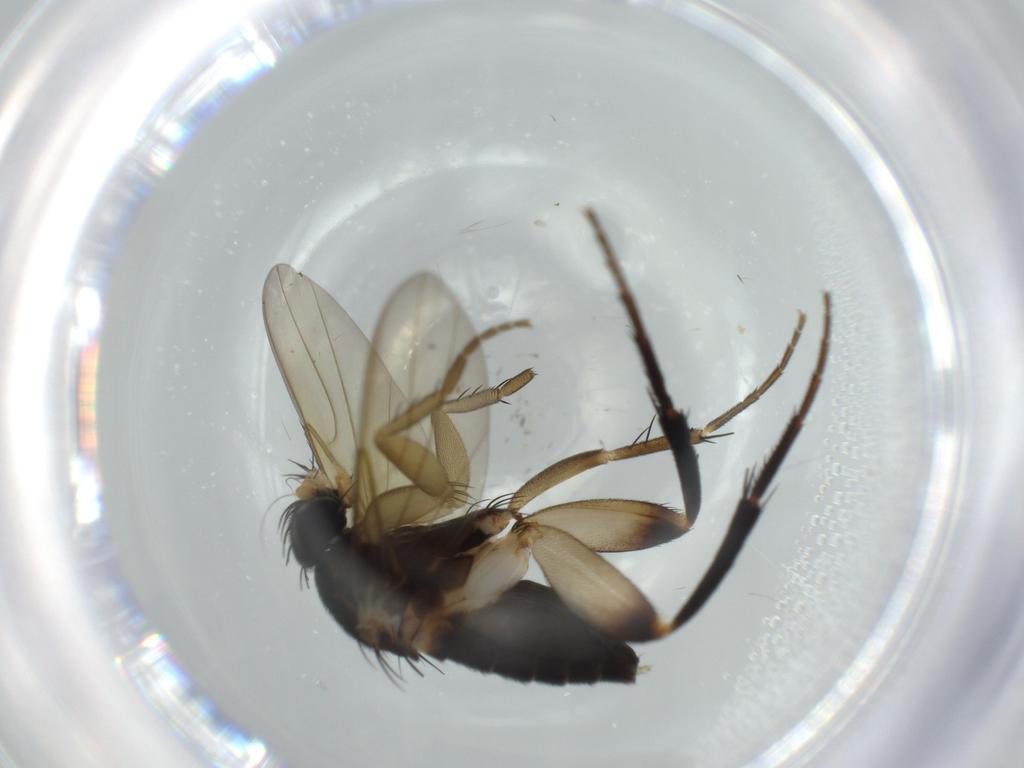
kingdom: Animalia
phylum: Arthropoda
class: Insecta
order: Diptera
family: Phoridae
